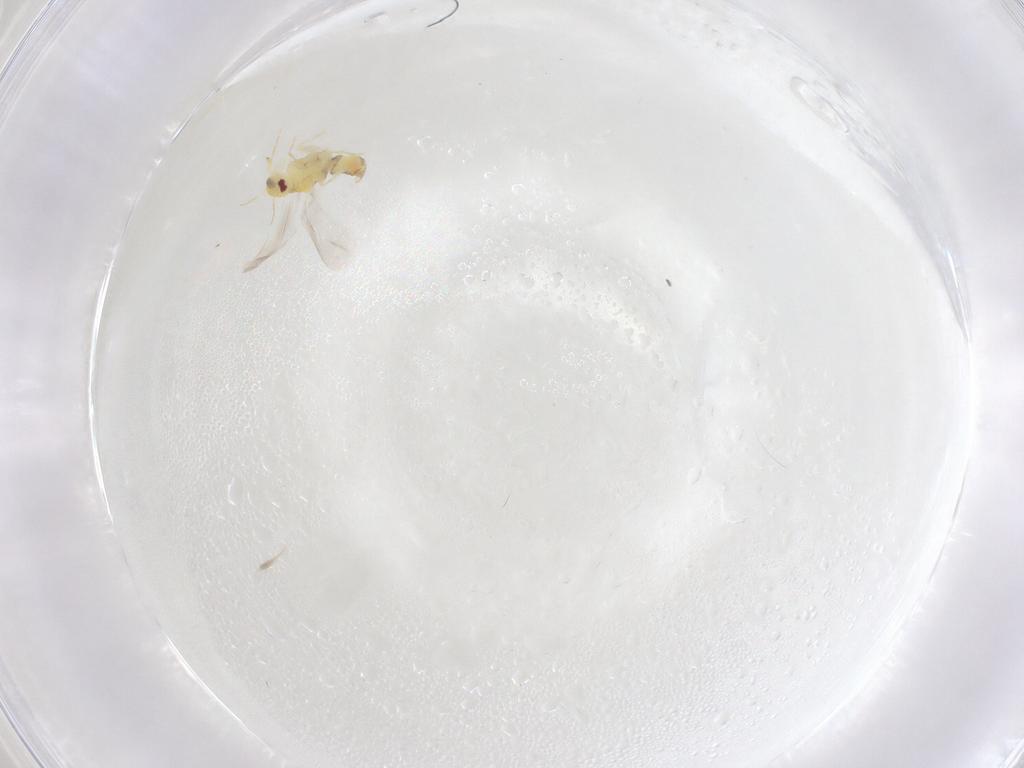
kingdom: Animalia
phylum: Arthropoda
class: Insecta
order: Hemiptera
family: Aleyrodidae
